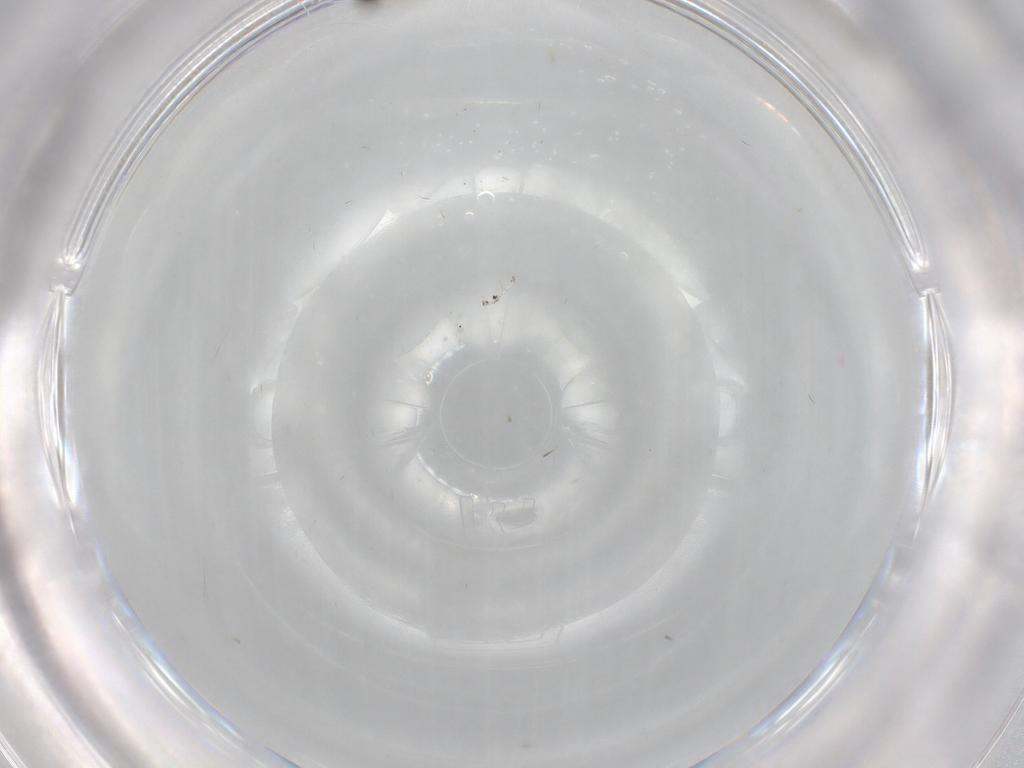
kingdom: Animalia
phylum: Arthropoda
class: Insecta
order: Diptera
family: Cecidomyiidae
